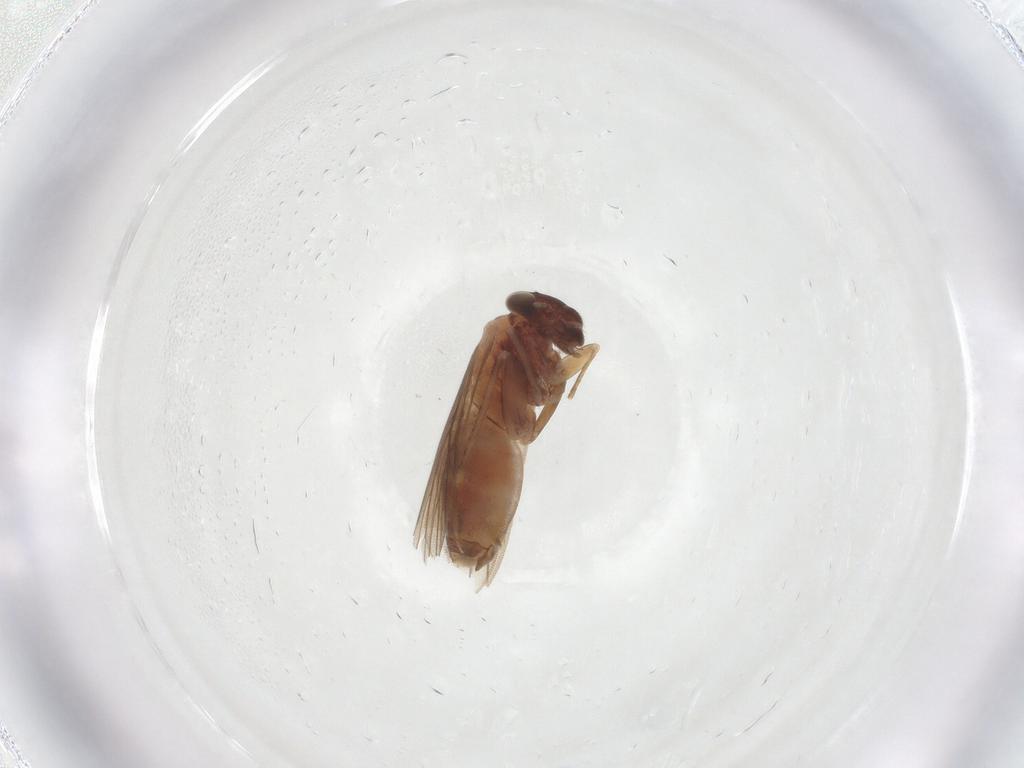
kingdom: Animalia
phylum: Arthropoda
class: Insecta
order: Psocodea
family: Lepidopsocidae
